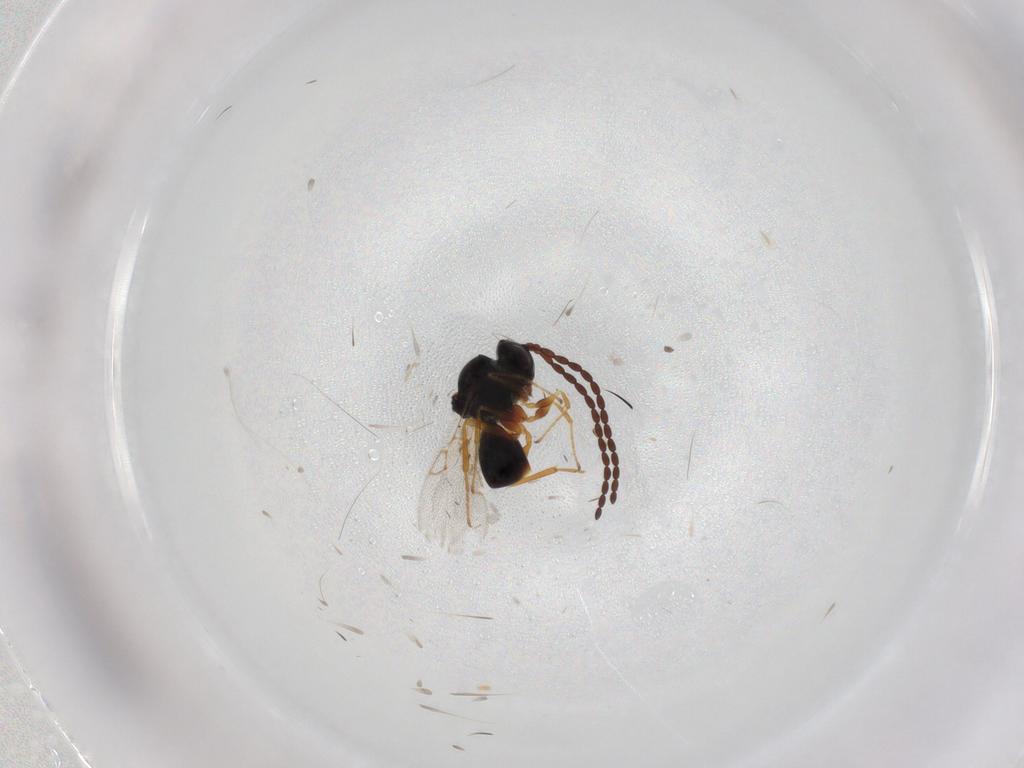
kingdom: Animalia
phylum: Arthropoda
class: Insecta
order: Hymenoptera
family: Figitidae
